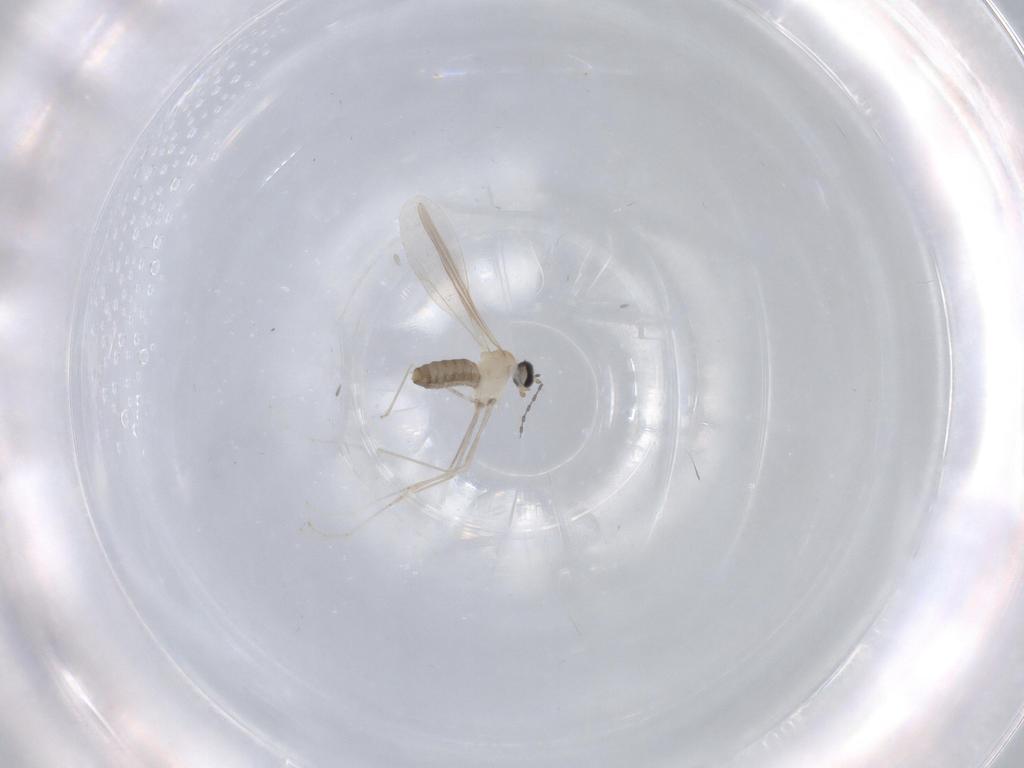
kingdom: Animalia
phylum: Arthropoda
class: Insecta
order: Diptera
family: Cecidomyiidae
